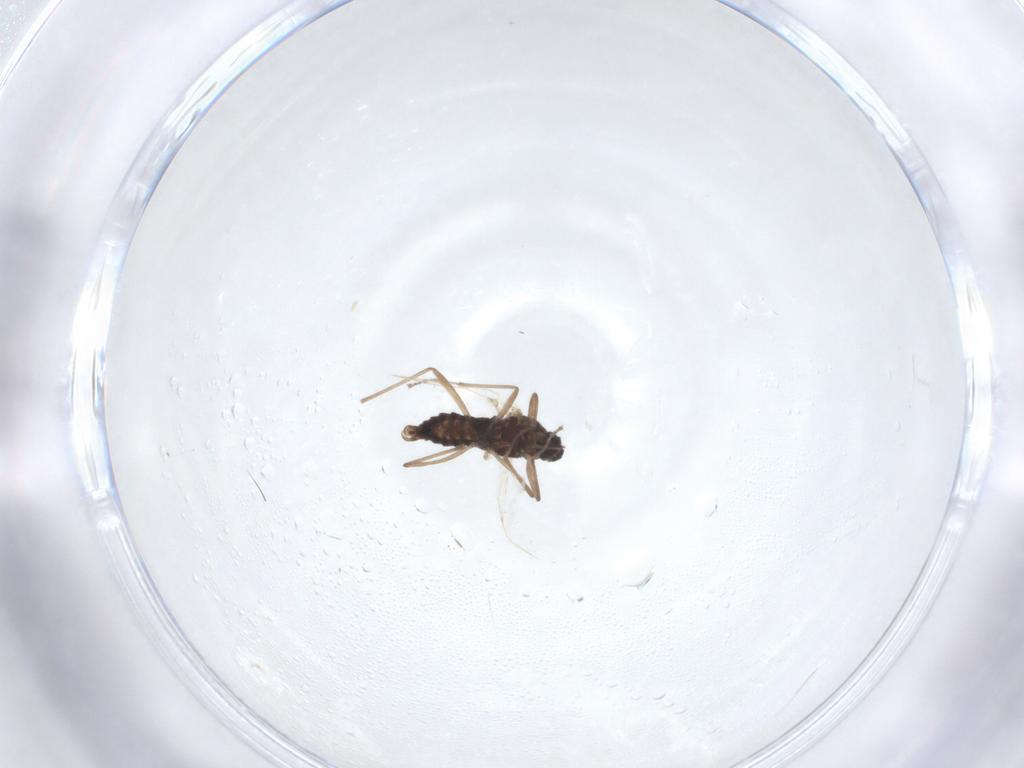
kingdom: Animalia
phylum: Arthropoda
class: Insecta
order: Diptera
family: Cecidomyiidae
